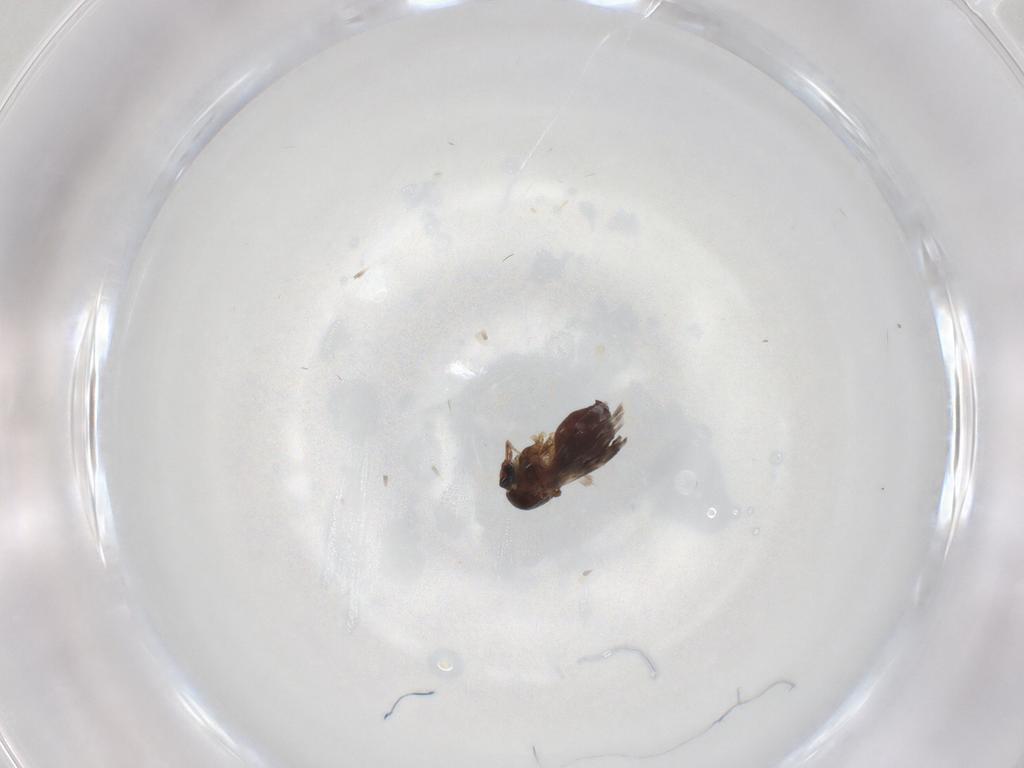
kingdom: Animalia
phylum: Arthropoda
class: Insecta
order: Diptera
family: Ceratopogonidae
